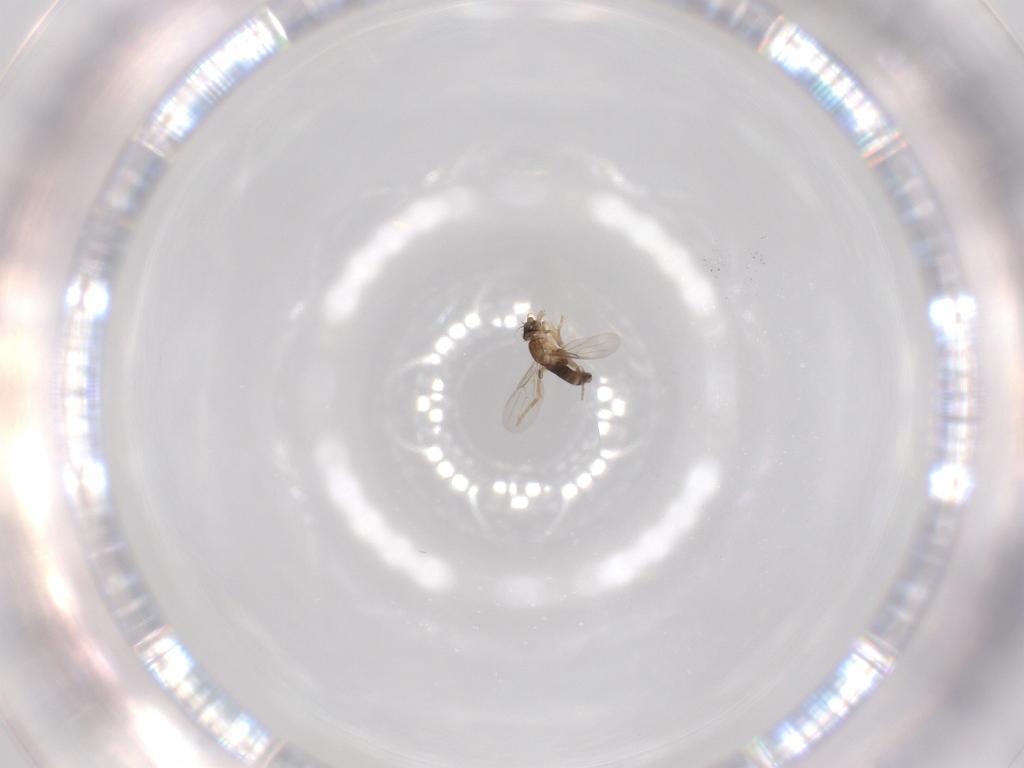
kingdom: Animalia
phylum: Arthropoda
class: Insecta
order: Diptera
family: Phoridae
